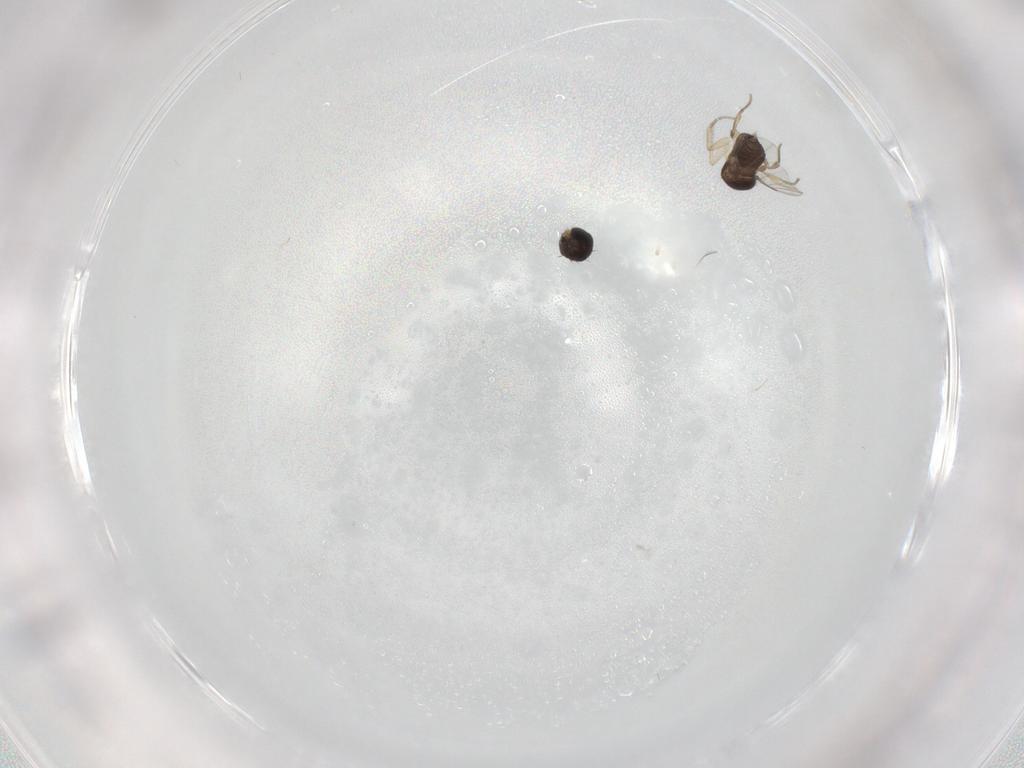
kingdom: Animalia
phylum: Arthropoda
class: Insecta
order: Diptera
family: Phoridae
